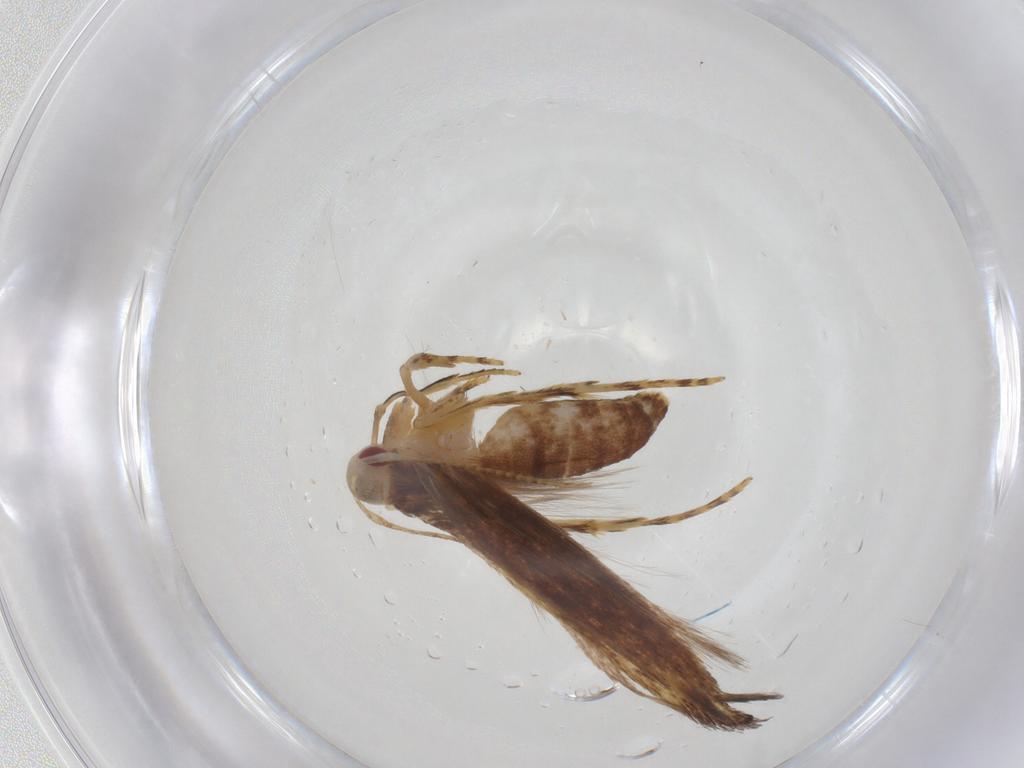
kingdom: Animalia
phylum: Arthropoda
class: Insecta
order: Lepidoptera
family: Cosmopterigidae
